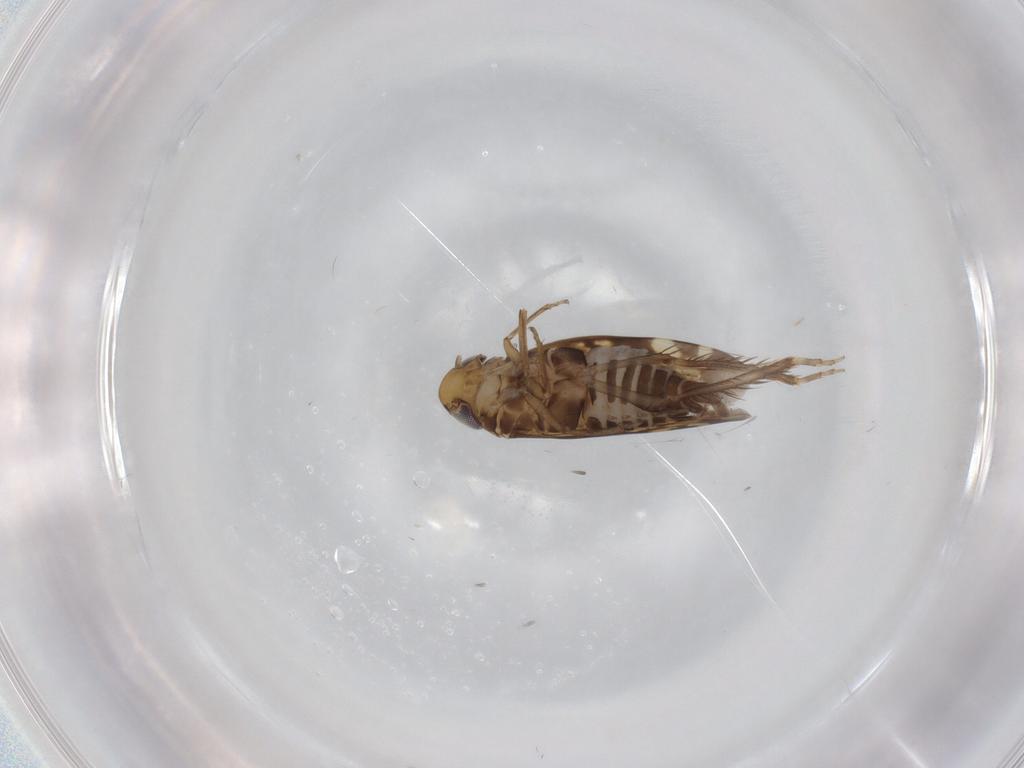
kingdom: Animalia
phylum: Arthropoda
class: Insecta
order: Hemiptera
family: Cicadellidae
